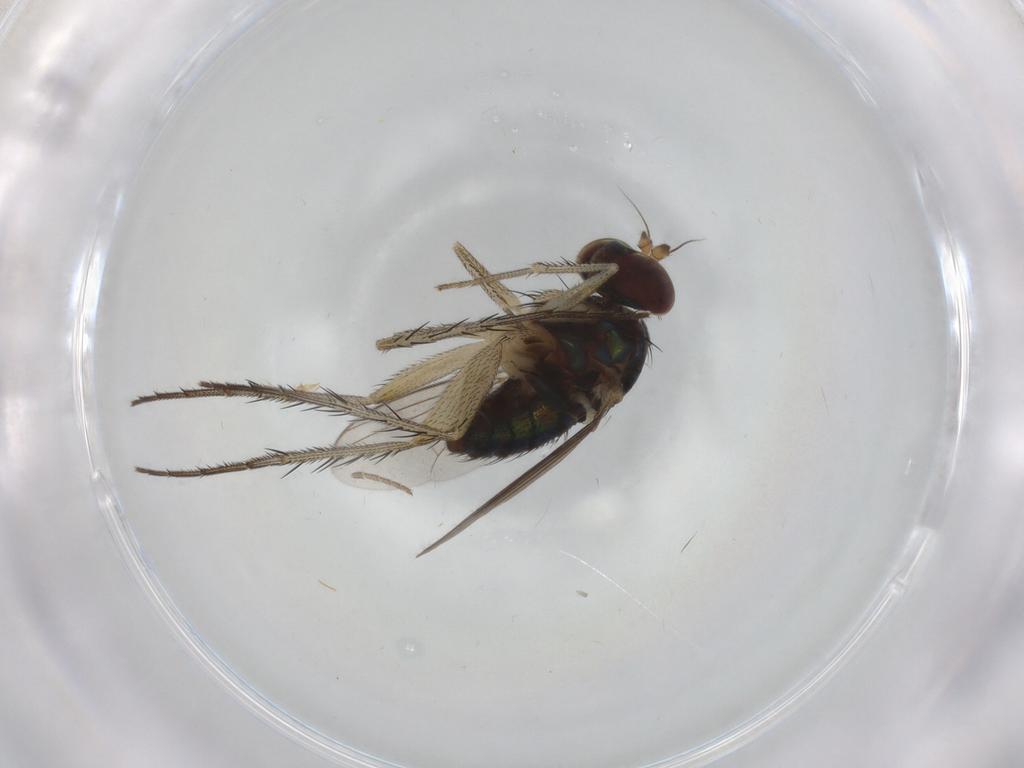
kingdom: Animalia
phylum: Arthropoda
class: Insecta
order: Diptera
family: Dolichopodidae
